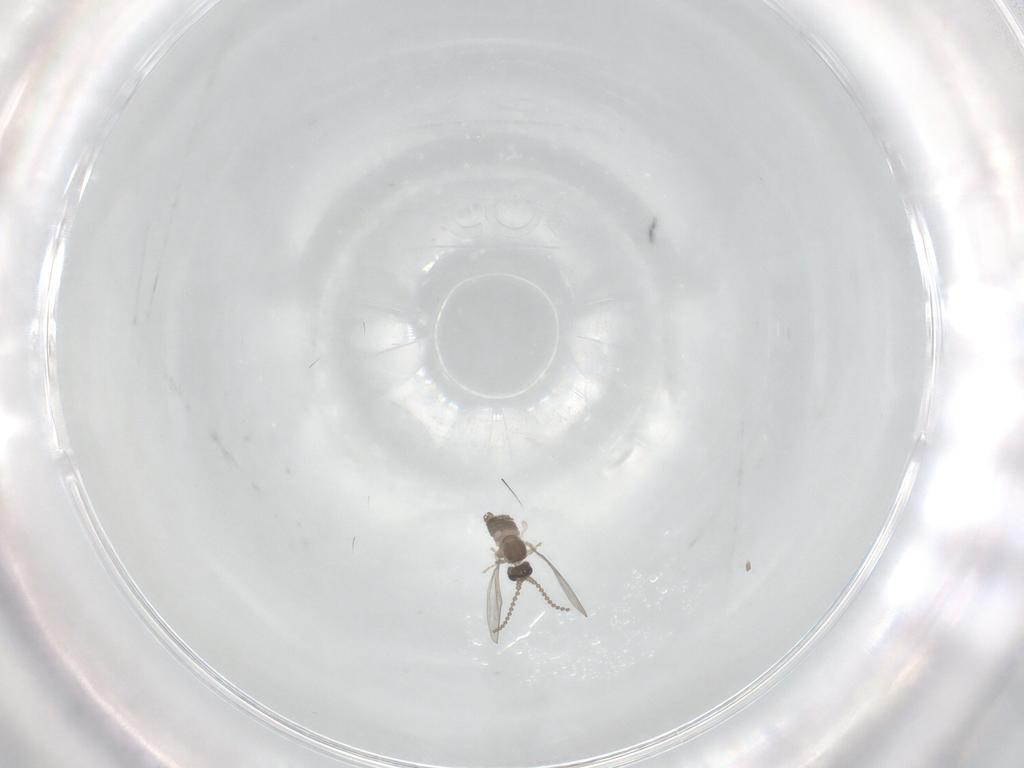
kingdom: Animalia
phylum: Arthropoda
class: Insecta
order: Diptera
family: Cecidomyiidae
